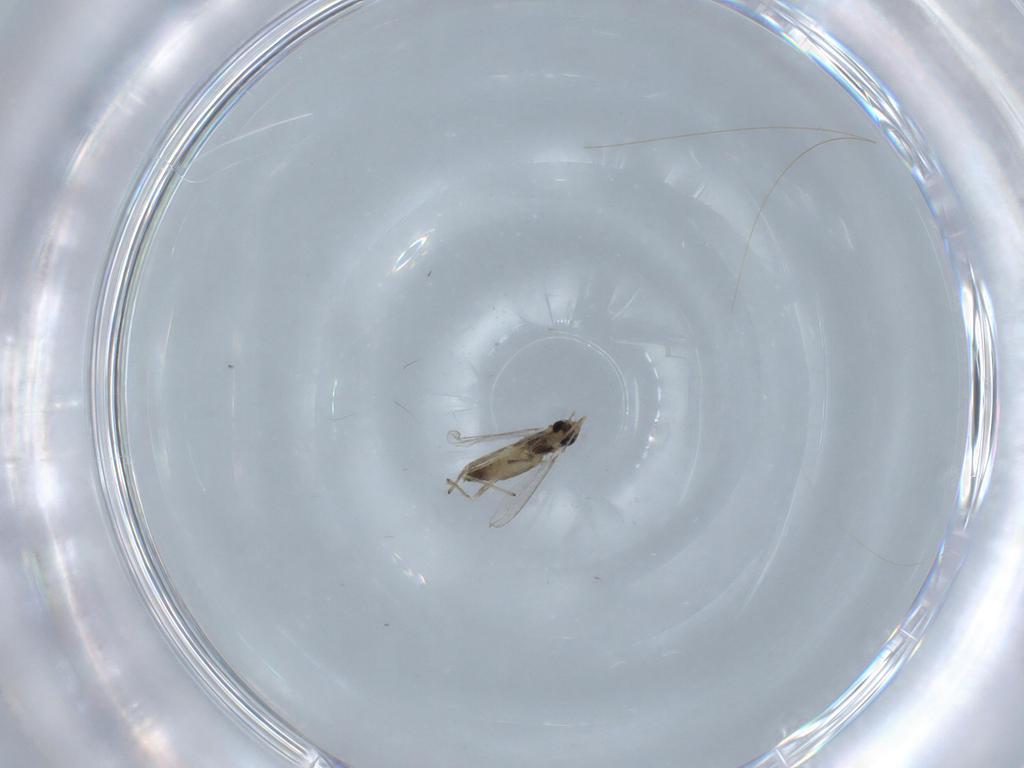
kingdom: Animalia
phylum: Arthropoda
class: Insecta
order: Diptera
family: Chironomidae
